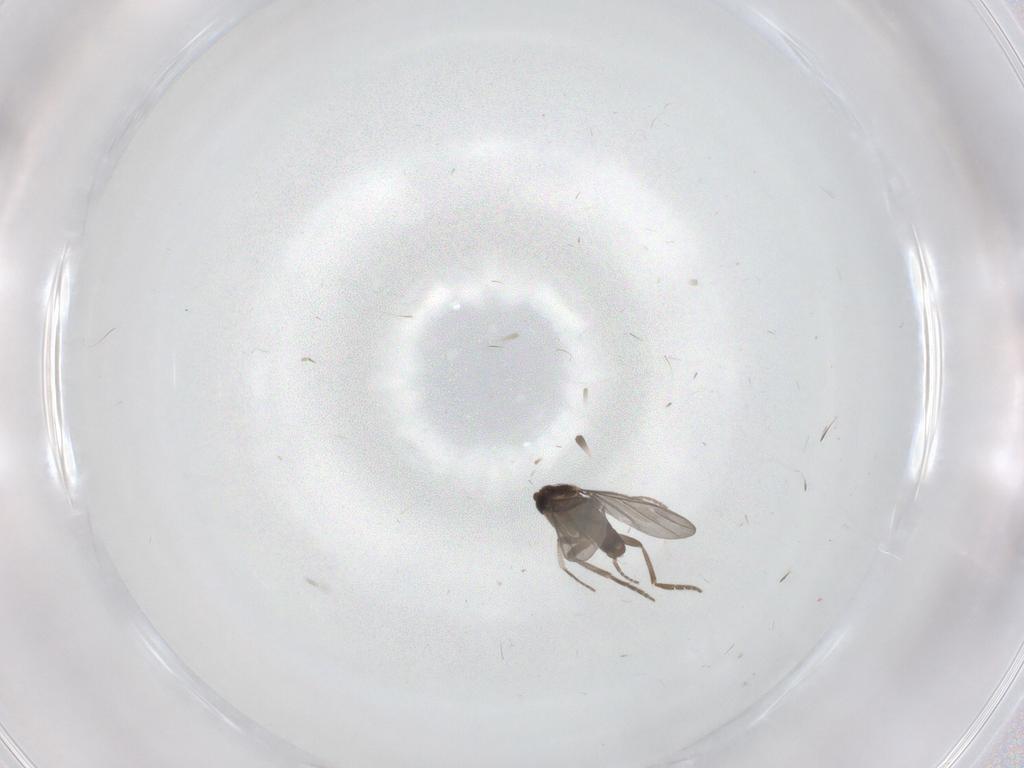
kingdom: Animalia
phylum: Arthropoda
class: Insecta
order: Diptera
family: Phoridae
